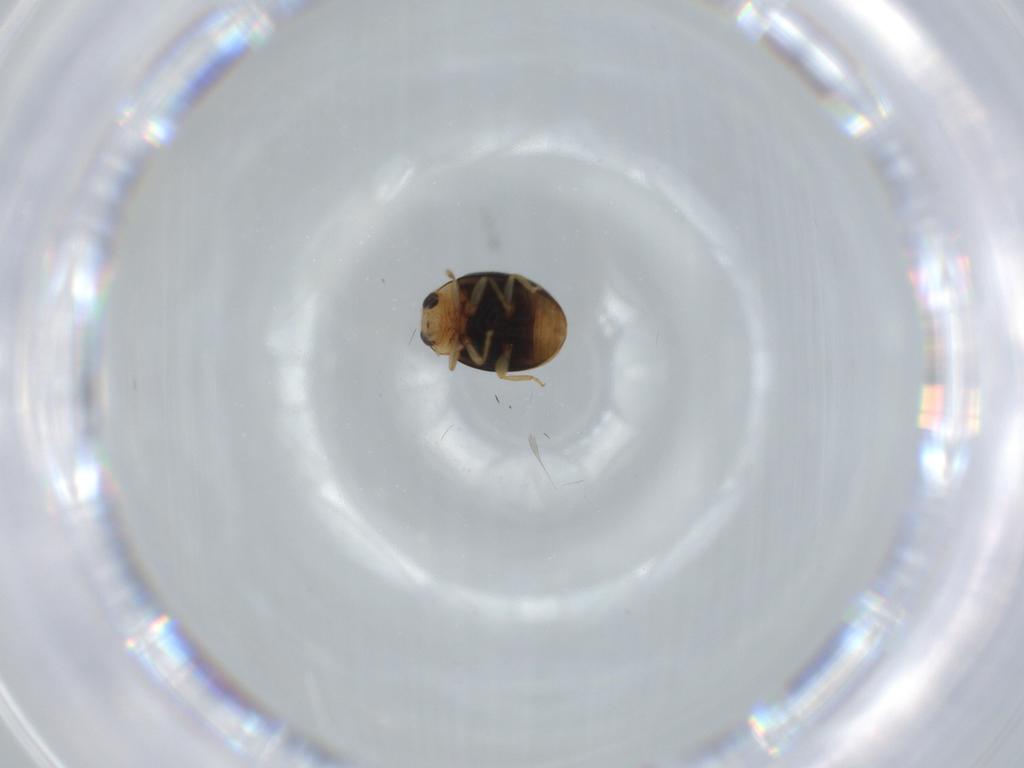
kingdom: Animalia
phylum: Arthropoda
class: Insecta
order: Coleoptera
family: Coccinellidae
